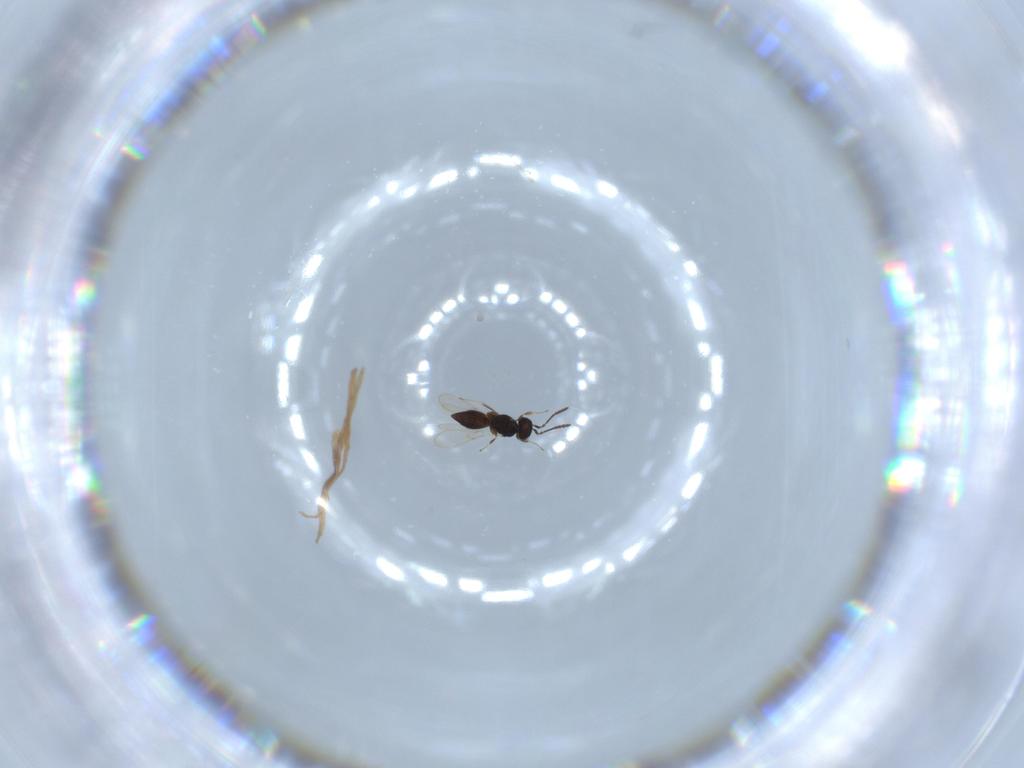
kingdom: Animalia
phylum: Arthropoda
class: Insecta
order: Hymenoptera
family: Scelionidae
